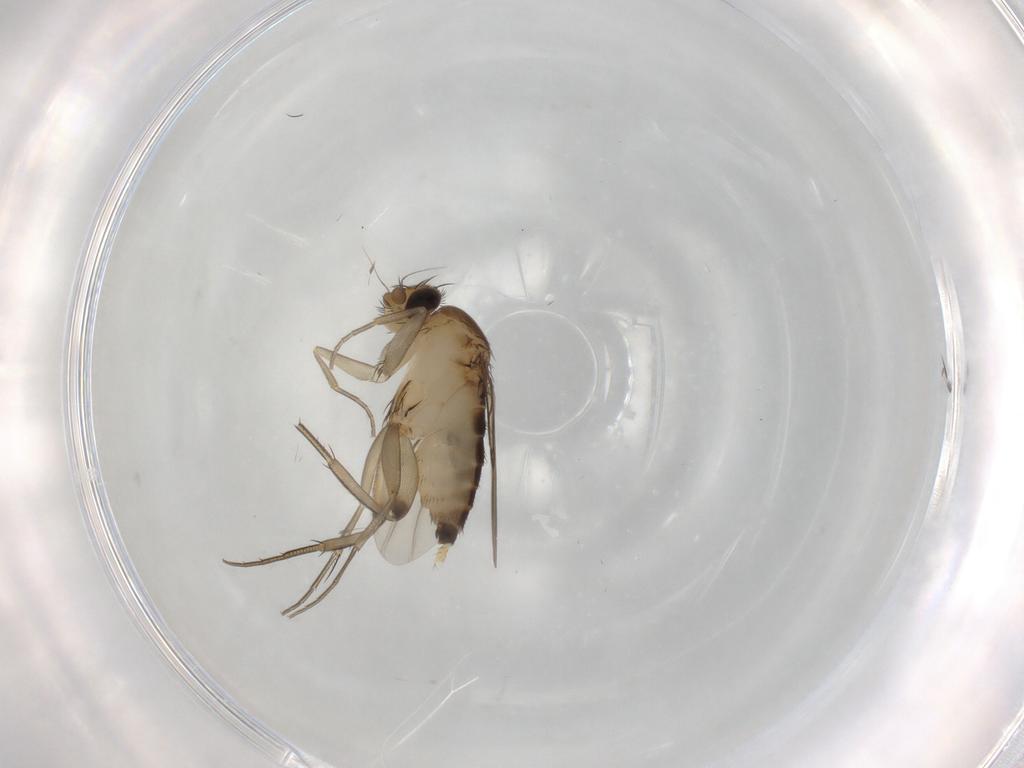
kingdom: Animalia
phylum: Arthropoda
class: Insecta
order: Diptera
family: Phoridae
